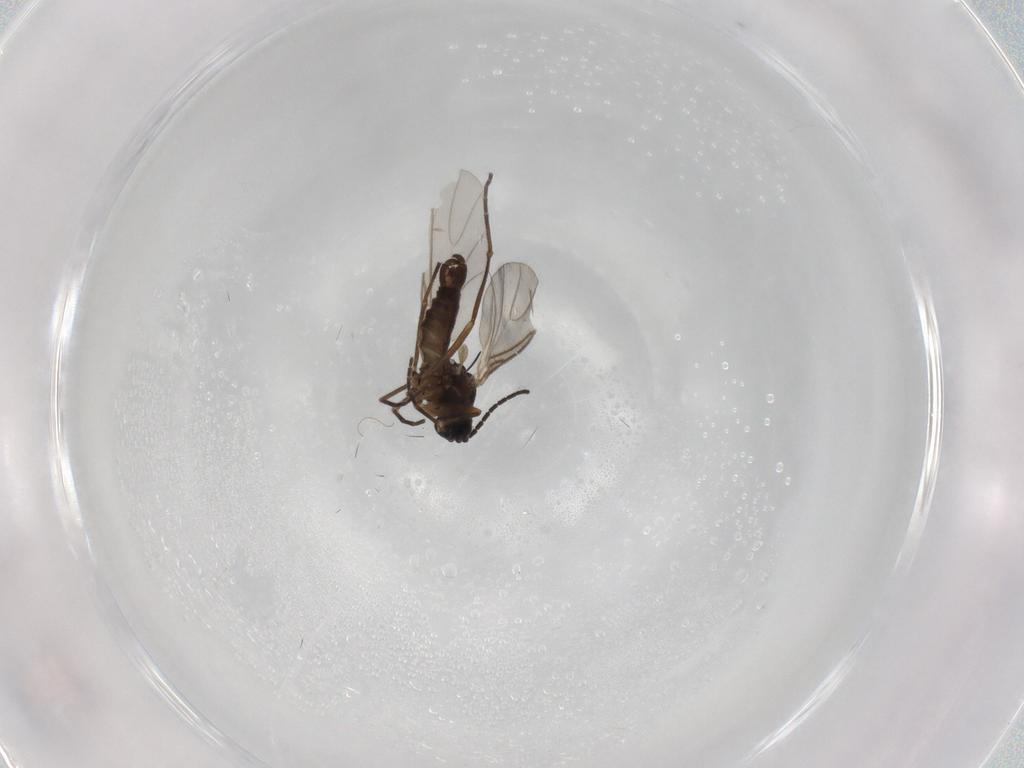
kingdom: Animalia
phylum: Arthropoda
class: Insecta
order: Diptera
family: Sciaridae
